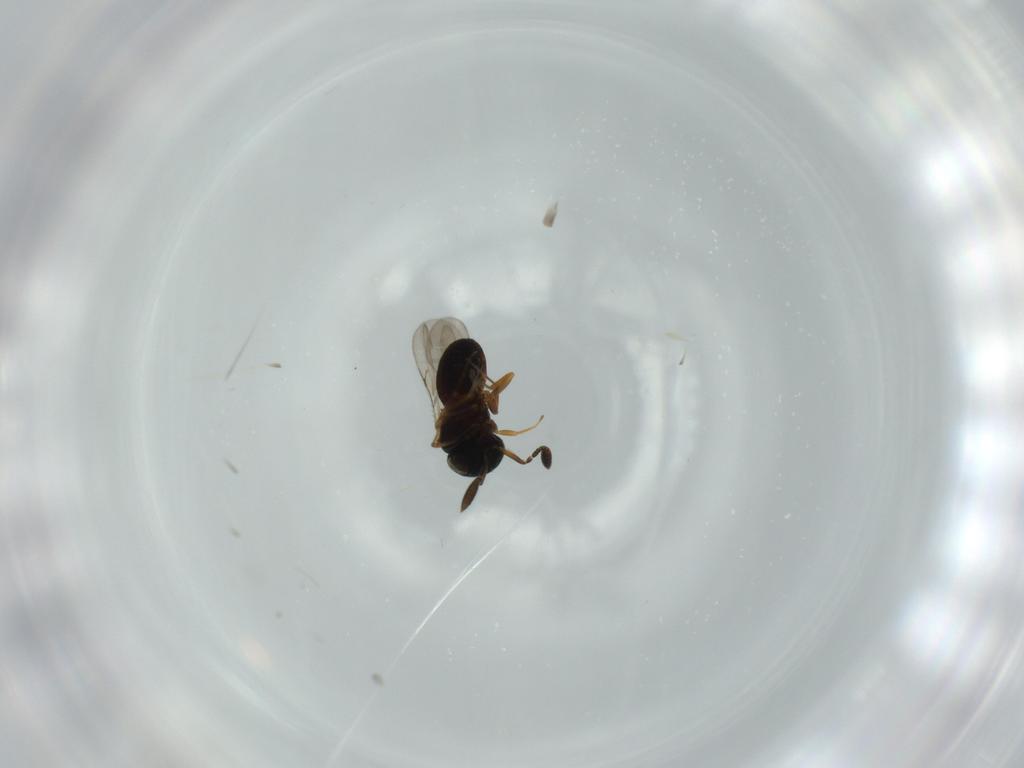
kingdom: Animalia
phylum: Arthropoda
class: Insecta
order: Hymenoptera
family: Scelionidae
